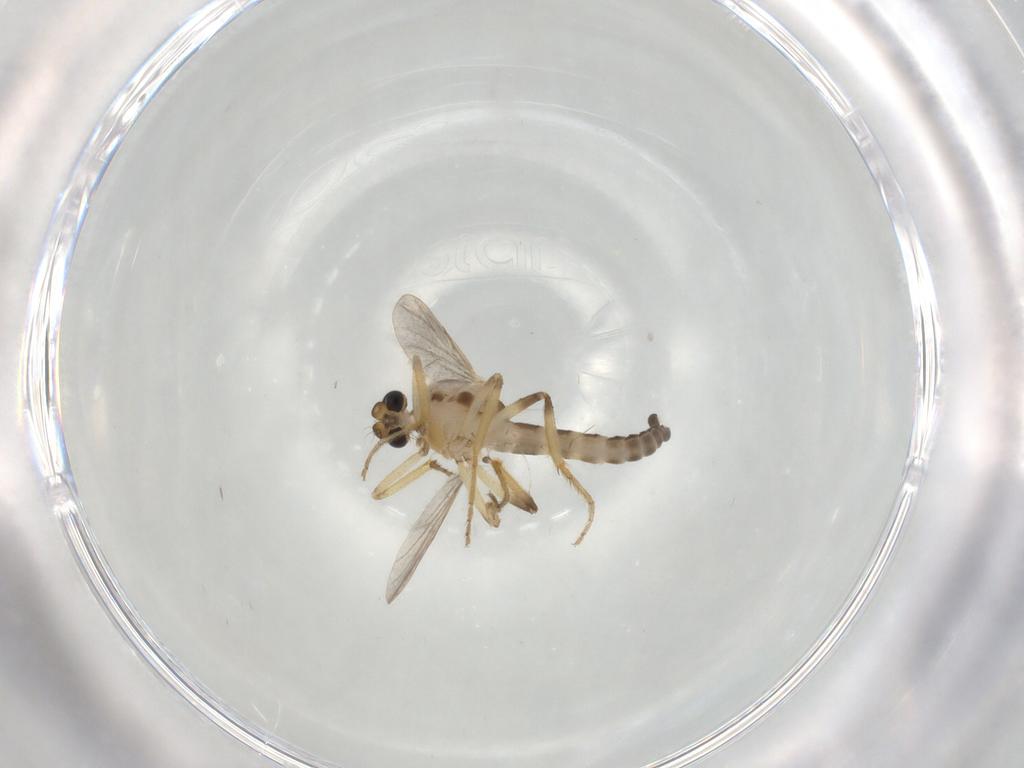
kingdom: Animalia
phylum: Arthropoda
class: Insecta
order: Diptera
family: Ceratopogonidae
